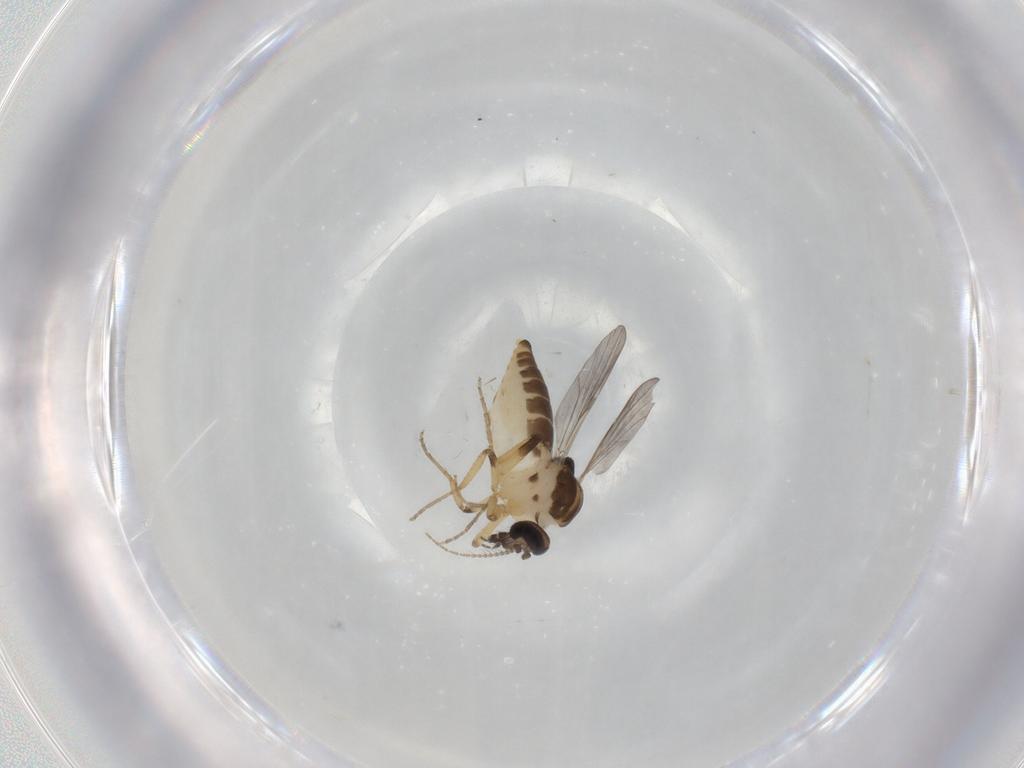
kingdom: Animalia
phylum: Arthropoda
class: Insecta
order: Diptera
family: Ceratopogonidae
